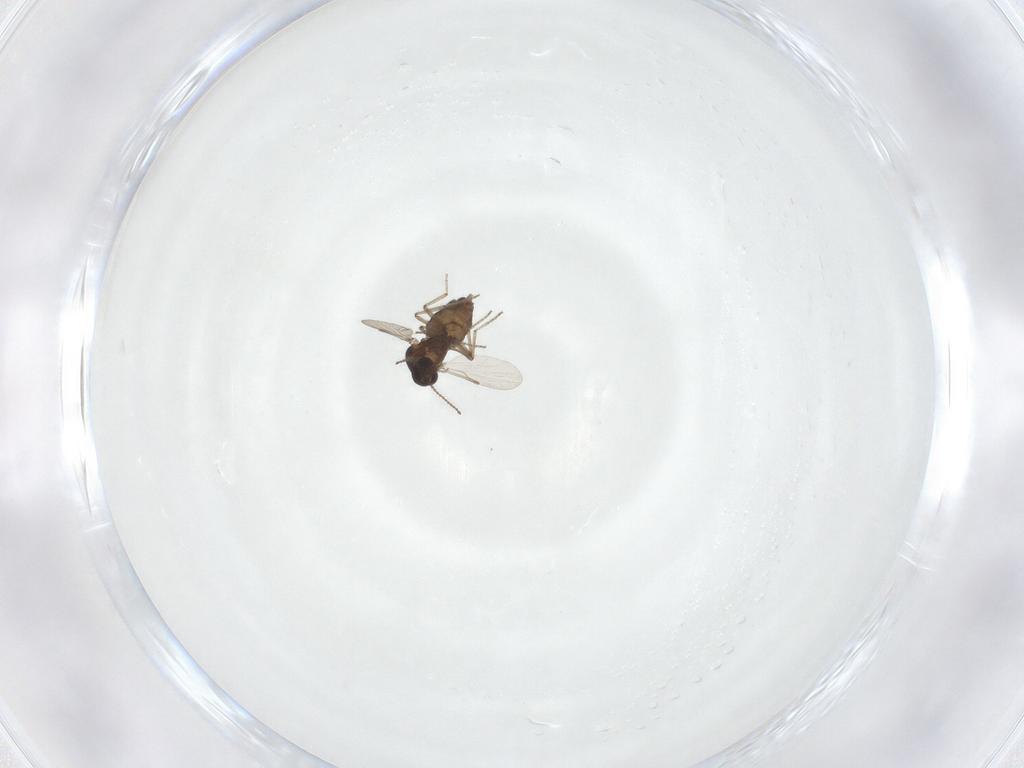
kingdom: Animalia
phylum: Arthropoda
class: Insecta
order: Diptera
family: Ceratopogonidae
